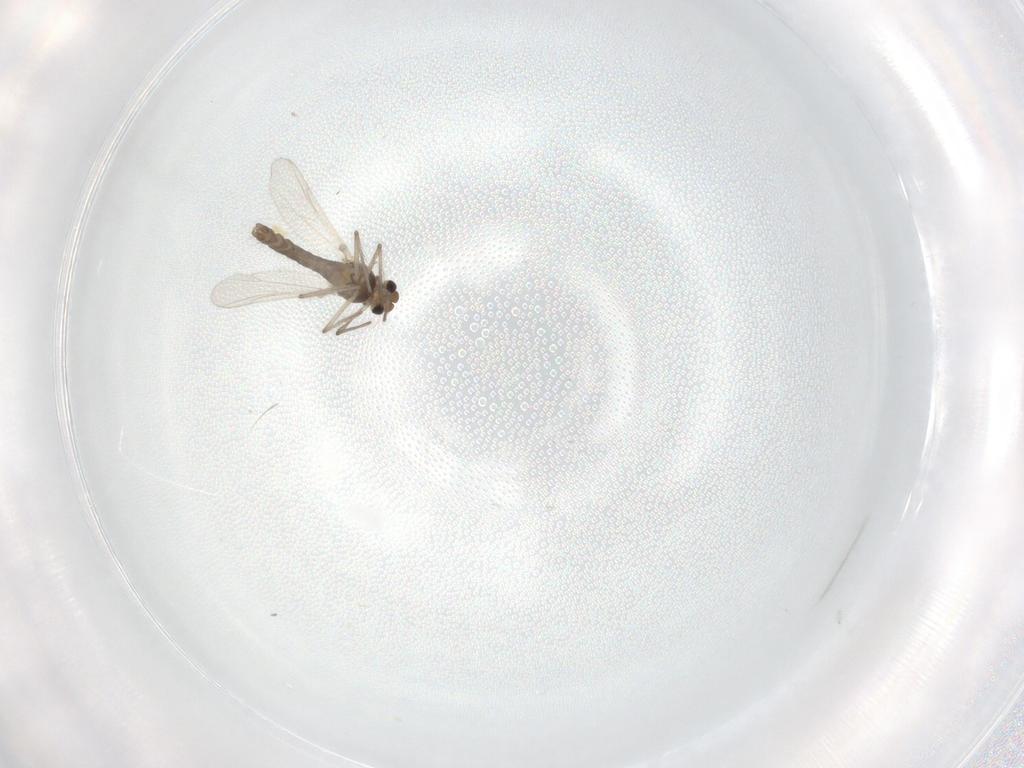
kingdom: Animalia
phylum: Arthropoda
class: Insecta
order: Diptera
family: Chironomidae
